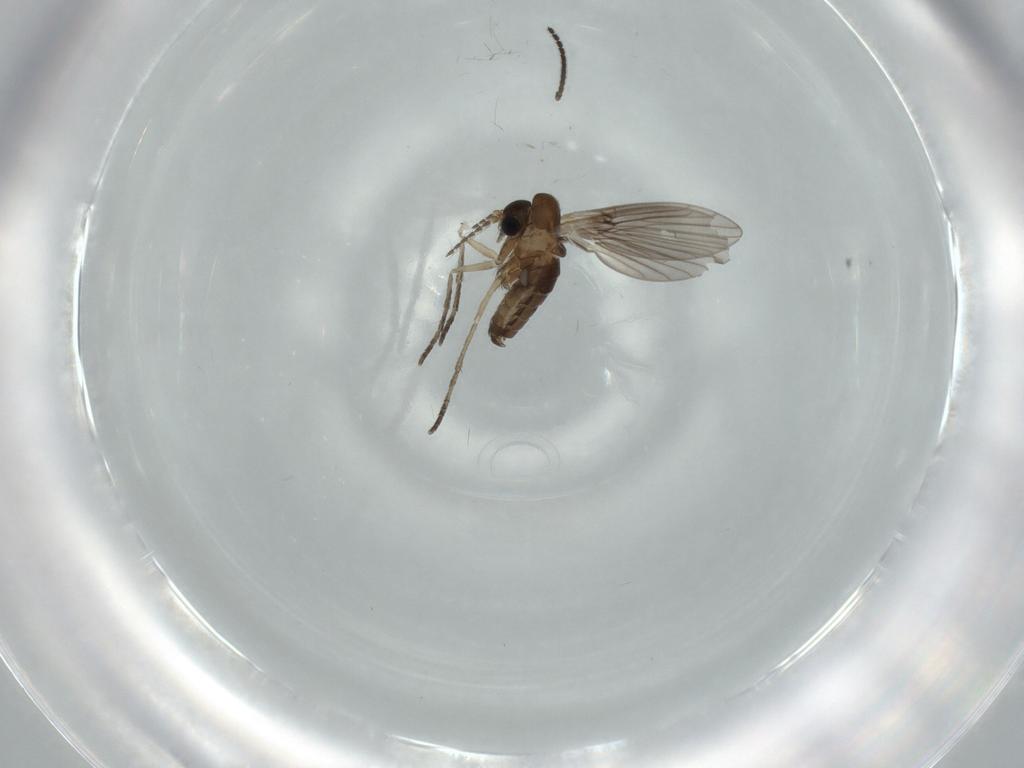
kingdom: Animalia
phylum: Arthropoda
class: Insecta
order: Diptera
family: Sciaridae
